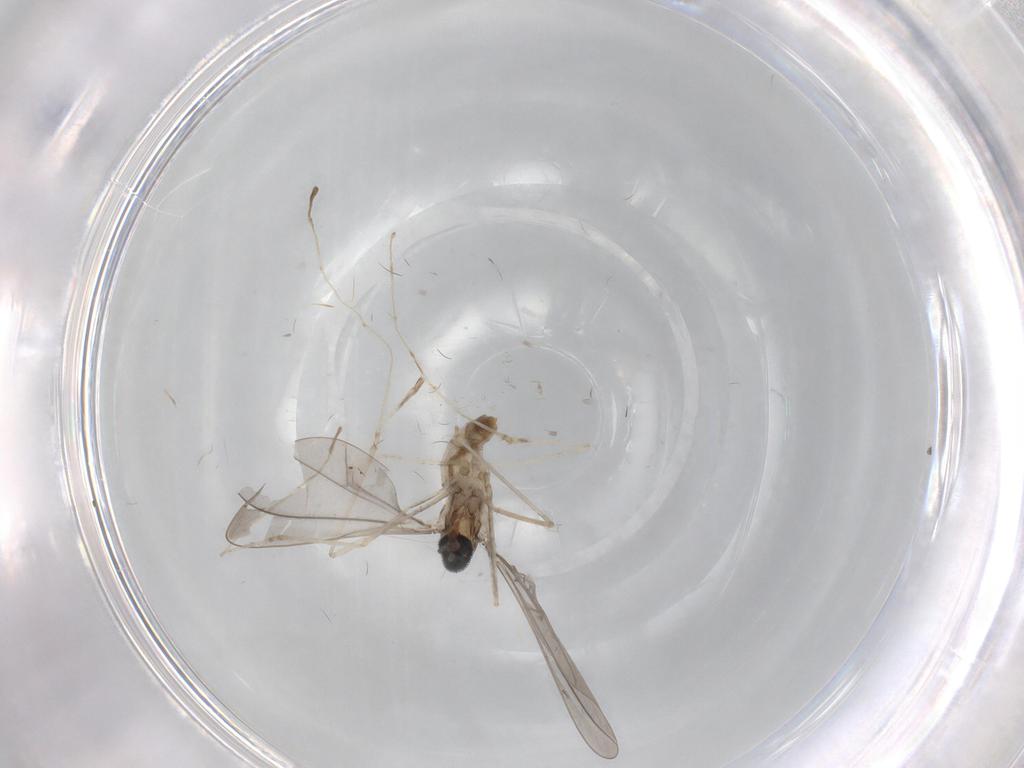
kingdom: Animalia
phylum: Arthropoda
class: Insecta
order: Diptera
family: Cecidomyiidae
